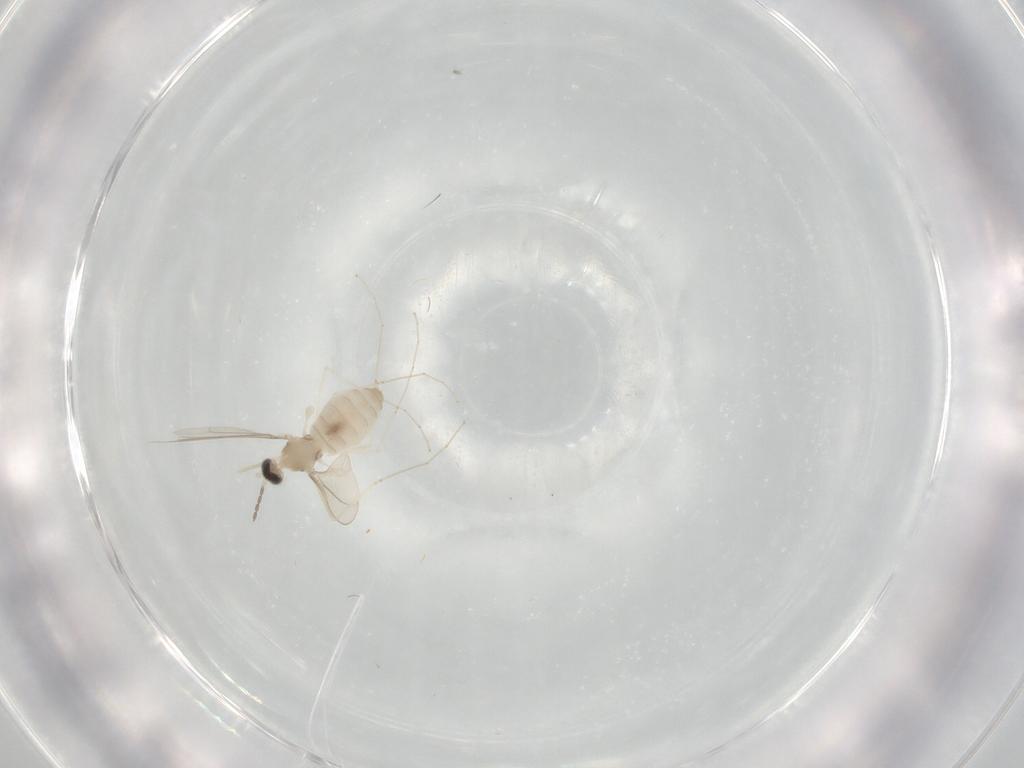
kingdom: Animalia
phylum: Arthropoda
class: Insecta
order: Diptera
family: Cecidomyiidae
